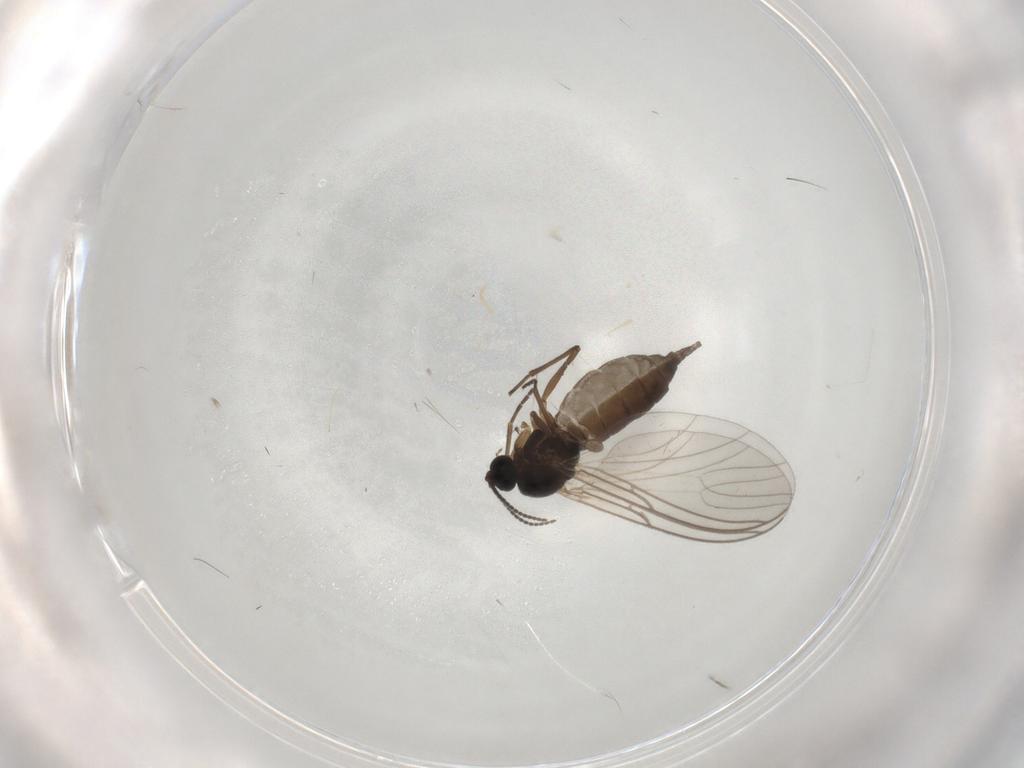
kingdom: Animalia
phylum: Arthropoda
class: Insecta
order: Diptera
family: Sciaridae
